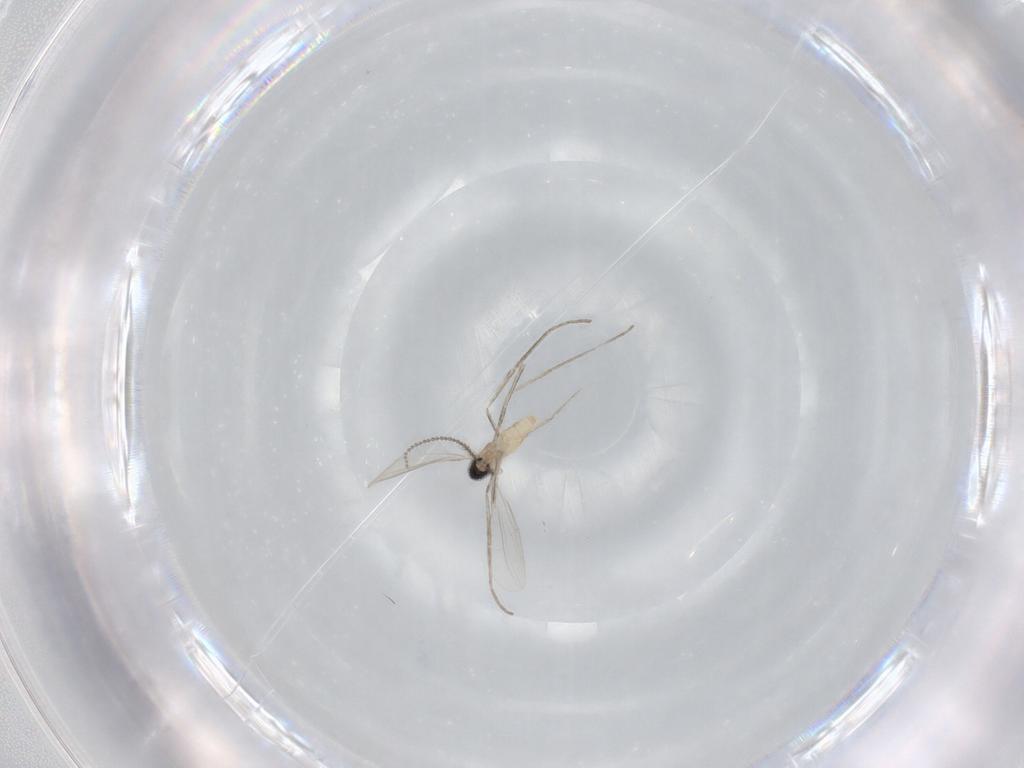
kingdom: Animalia
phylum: Arthropoda
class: Insecta
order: Diptera
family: Cecidomyiidae
